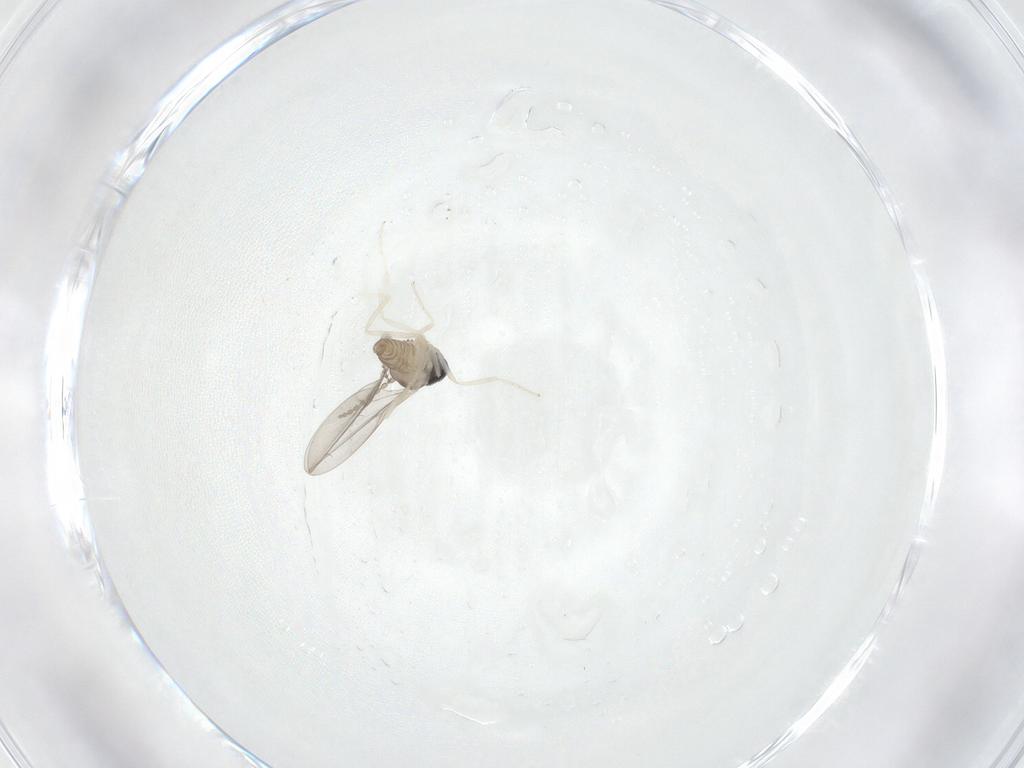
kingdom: Animalia
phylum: Arthropoda
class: Insecta
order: Diptera
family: Cecidomyiidae
